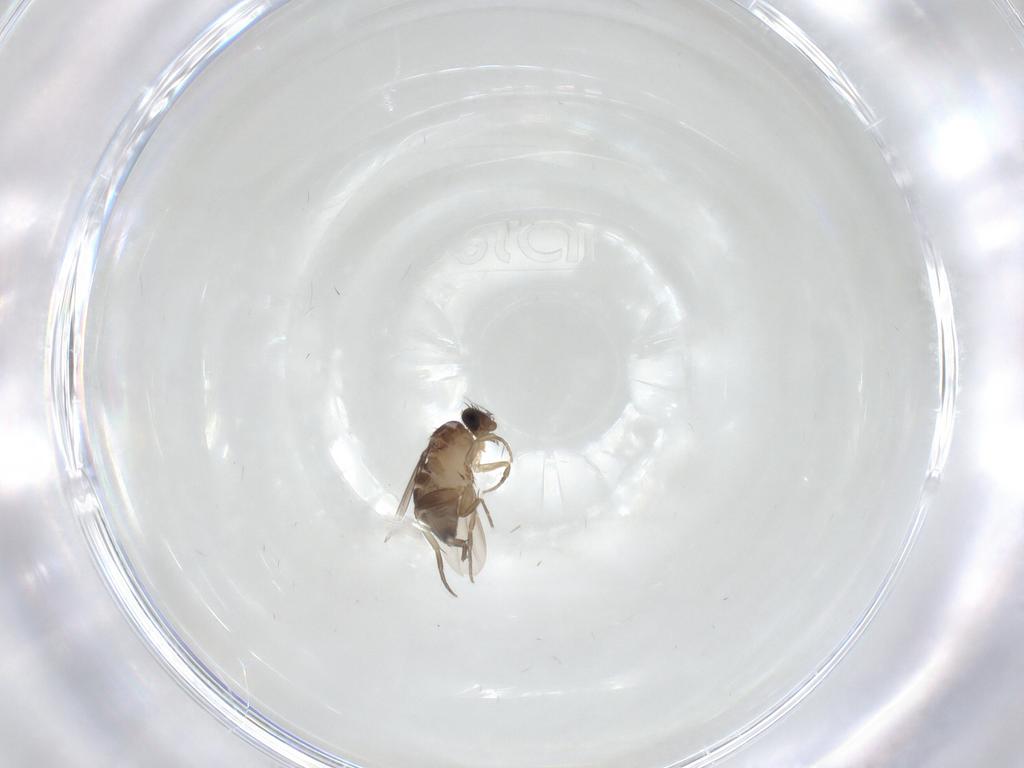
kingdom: Animalia
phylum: Arthropoda
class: Insecta
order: Diptera
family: Phoridae
